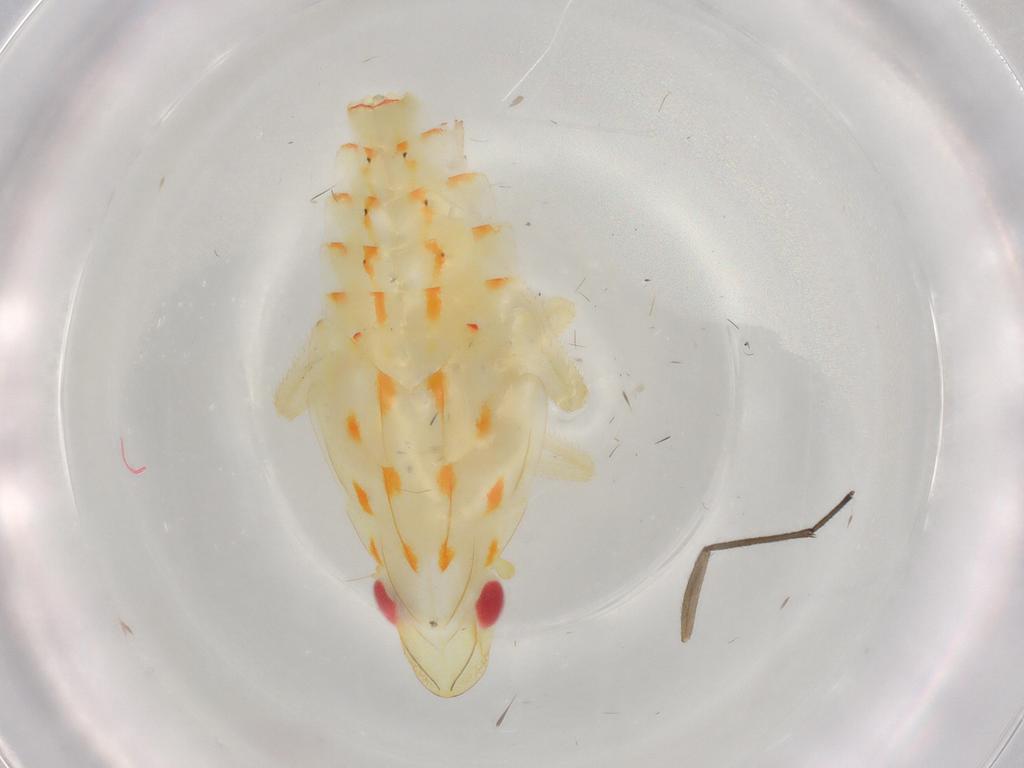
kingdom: Animalia
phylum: Arthropoda
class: Insecta
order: Hemiptera
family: Tropiduchidae
